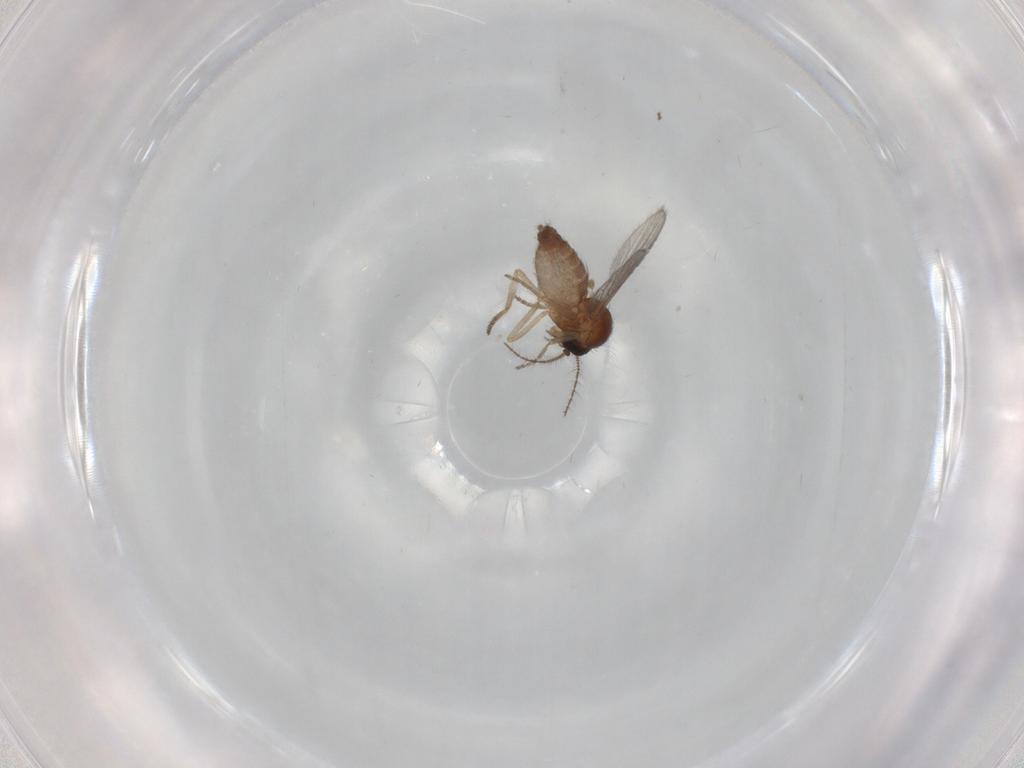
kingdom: Animalia
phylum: Arthropoda
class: Insecta
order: Diptera
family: Ceratopogonidae
